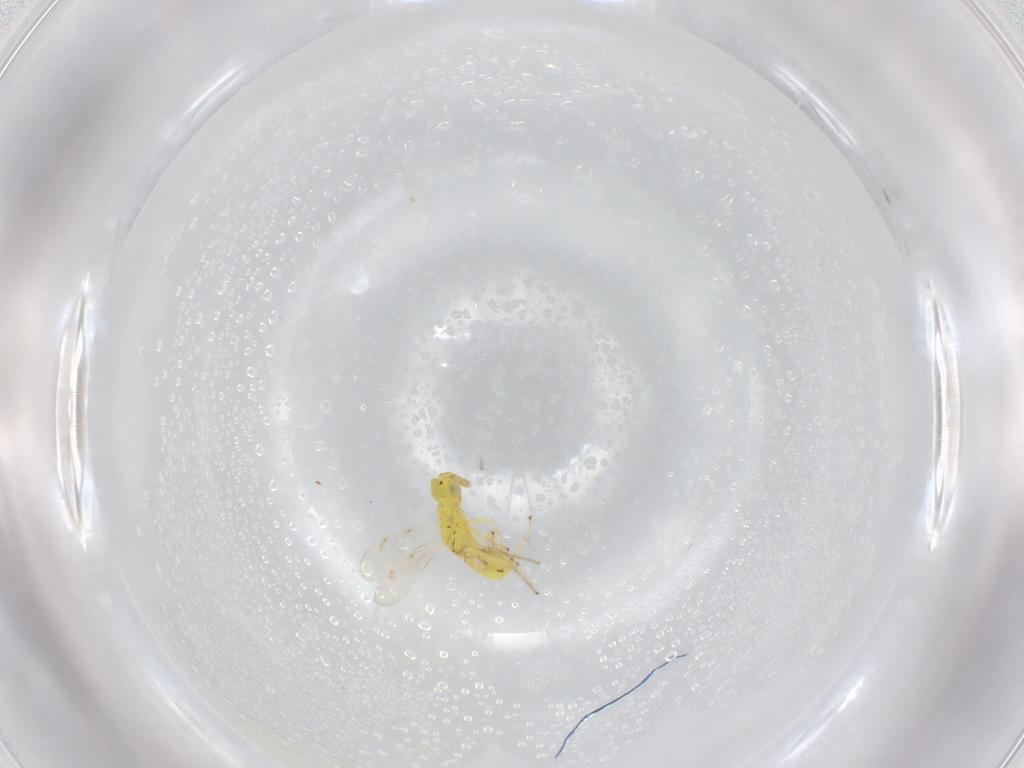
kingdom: Animalia
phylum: Arthropoda
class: Insecta
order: Hymenoptera
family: Eulophidae
